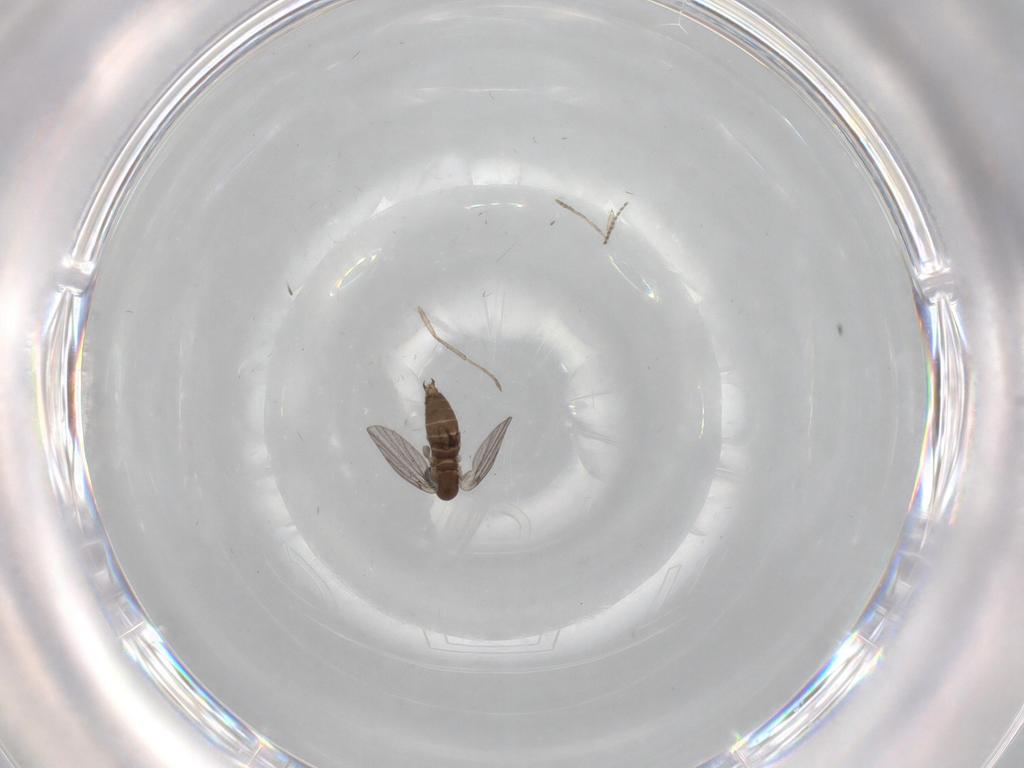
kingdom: Animalia
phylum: Arthropoda
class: Insecta
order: Diptera
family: Psychodidae
